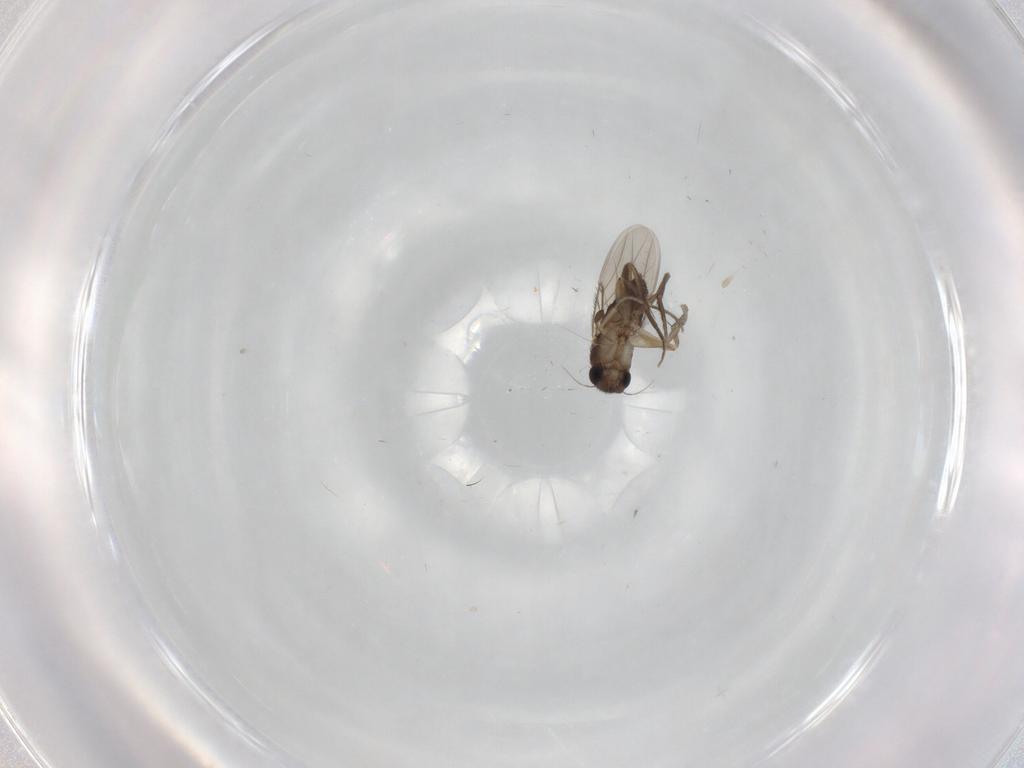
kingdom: Animalia
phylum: Arthropoda
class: Insecta
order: Diptera
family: Phoridae
